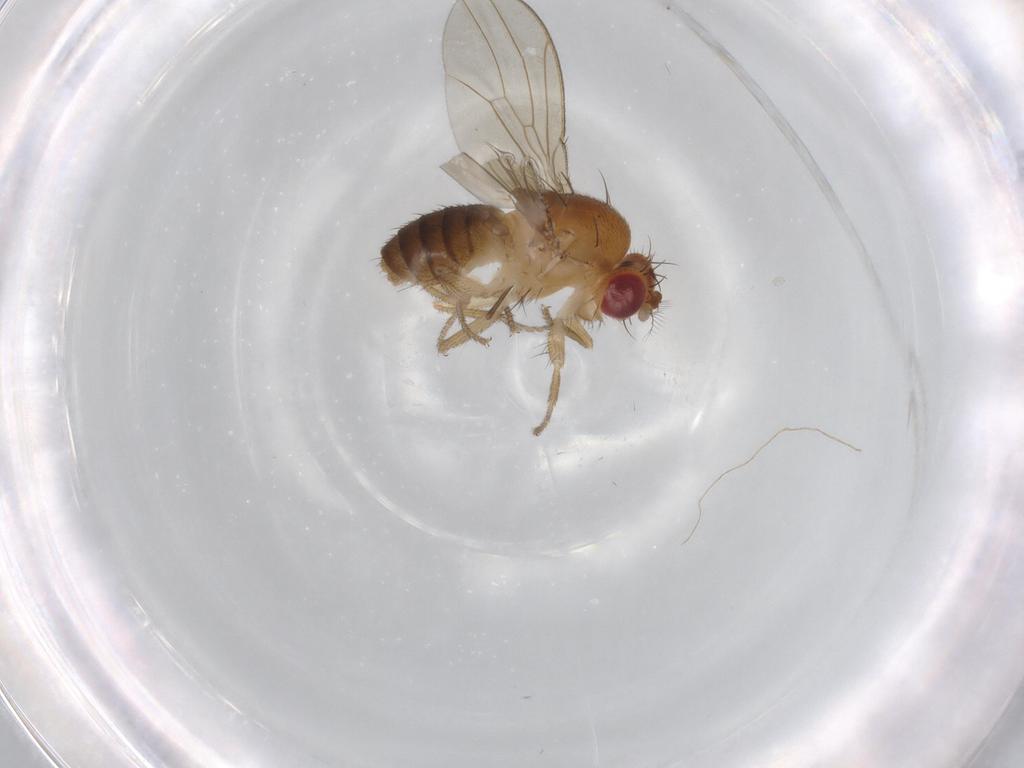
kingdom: Animalia
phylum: Arthropoda
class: Insecta
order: Diptera
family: Drosophilidae
